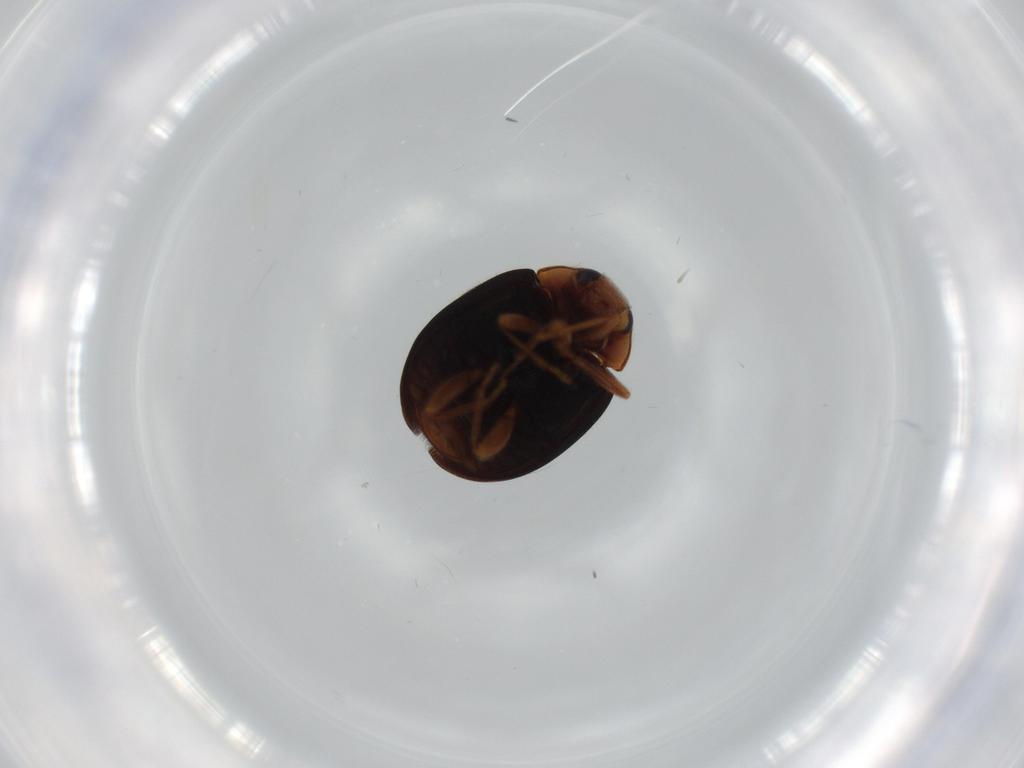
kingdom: Animalia
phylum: Arthropoda
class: Insecta
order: Coleoptera
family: Coccinellidae
